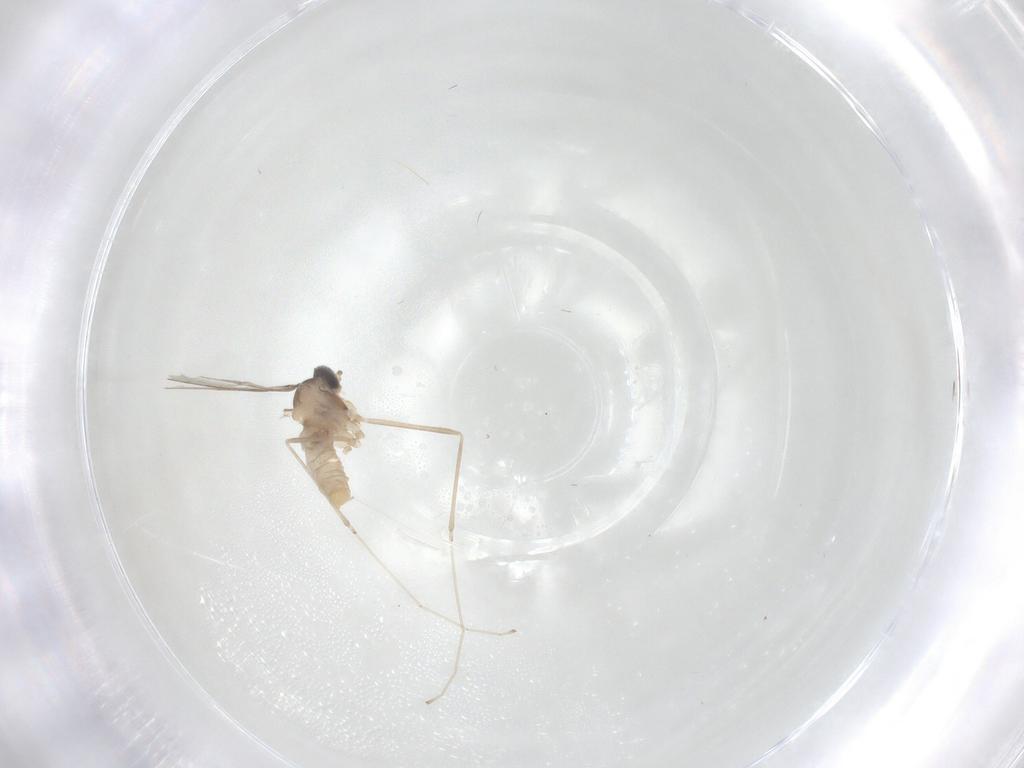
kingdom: Animalia
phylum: Arthropoda
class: Insecta
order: Diptera
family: Cecidomyiidae
